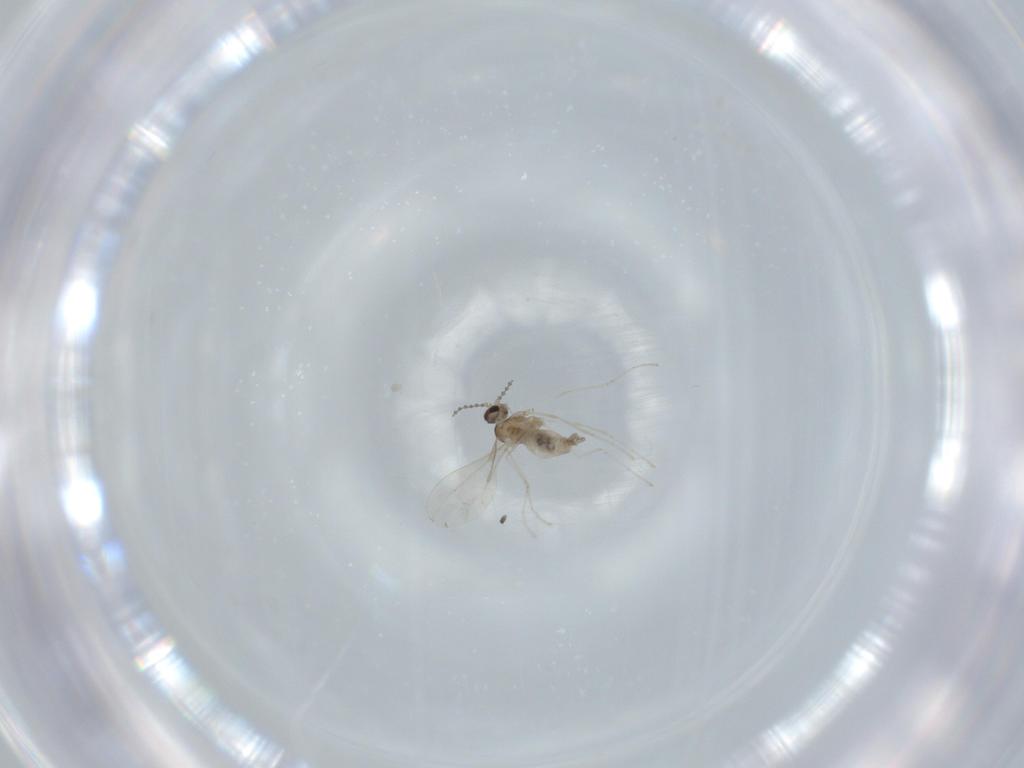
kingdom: Animalia
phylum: Arthropoda
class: Insecta
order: Diptera
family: Cecidomyiidae
